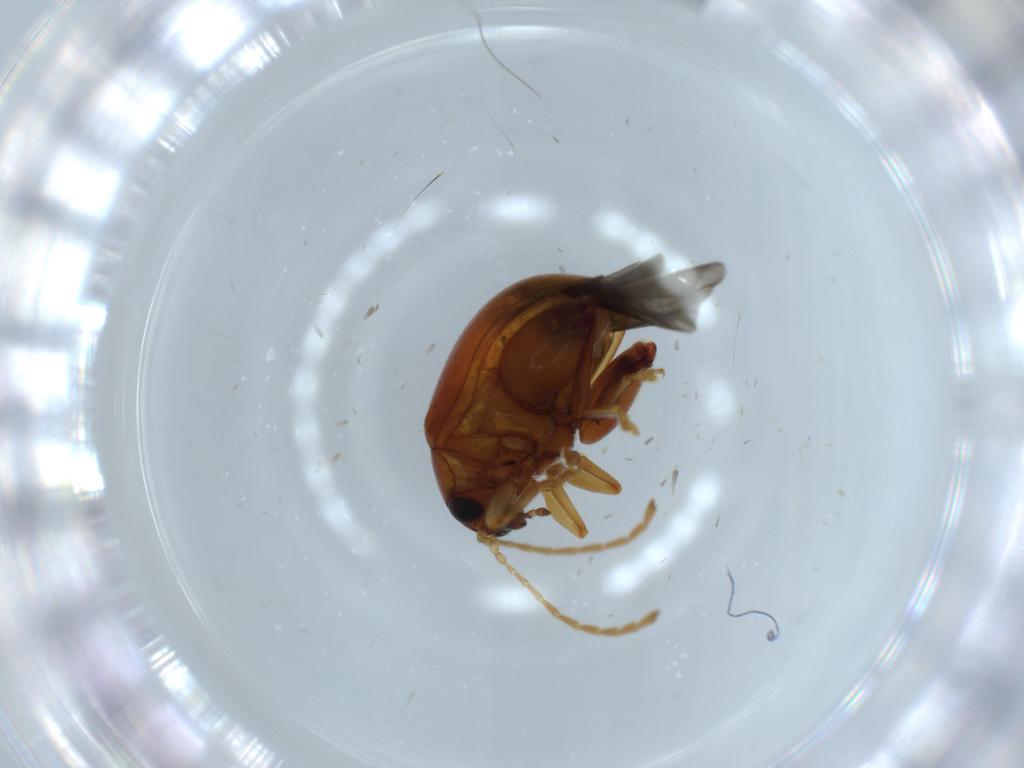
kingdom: Animalia
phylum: Arthropoda
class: Insecta
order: Coleoptera
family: Chrysomelidae
